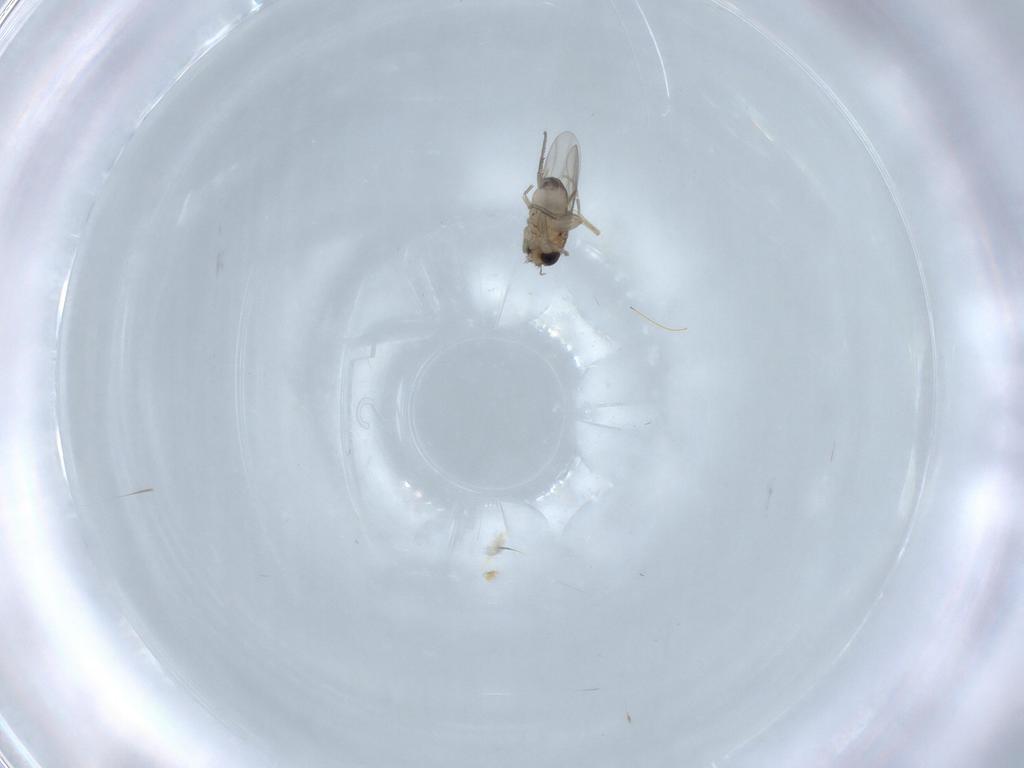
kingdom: Animalia
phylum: Arthropoda
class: Insecta
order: Diptera
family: Phoridae
